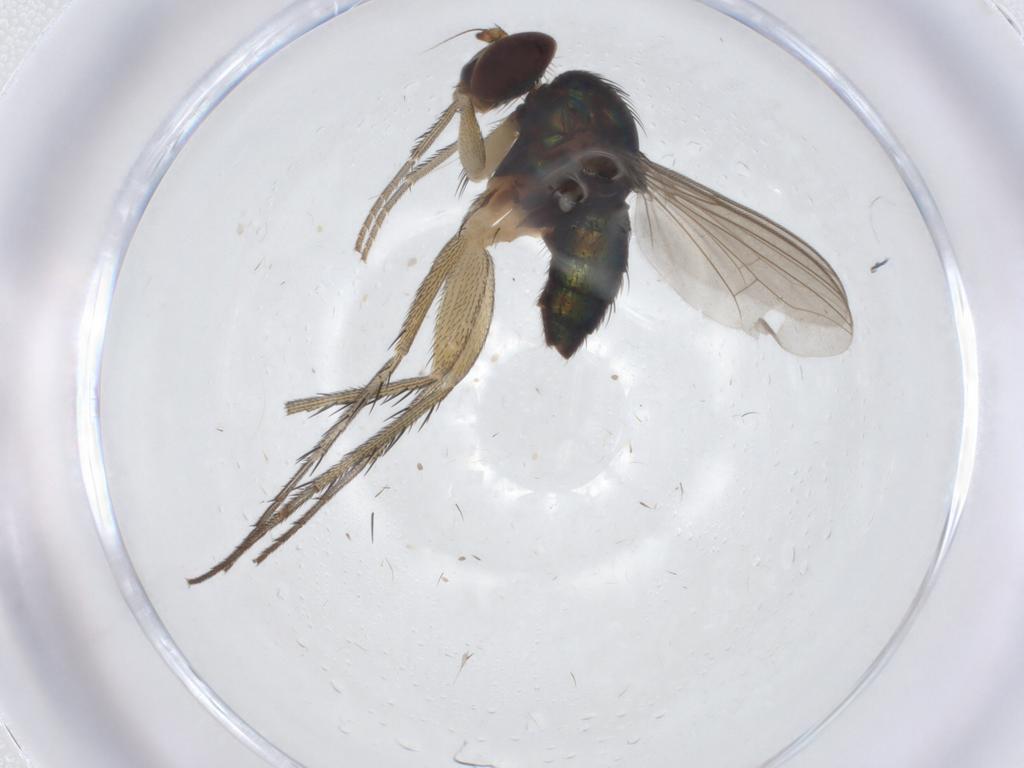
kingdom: Animalia
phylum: Arthropoda
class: Insecta
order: Diptera
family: Dolichopodidae
